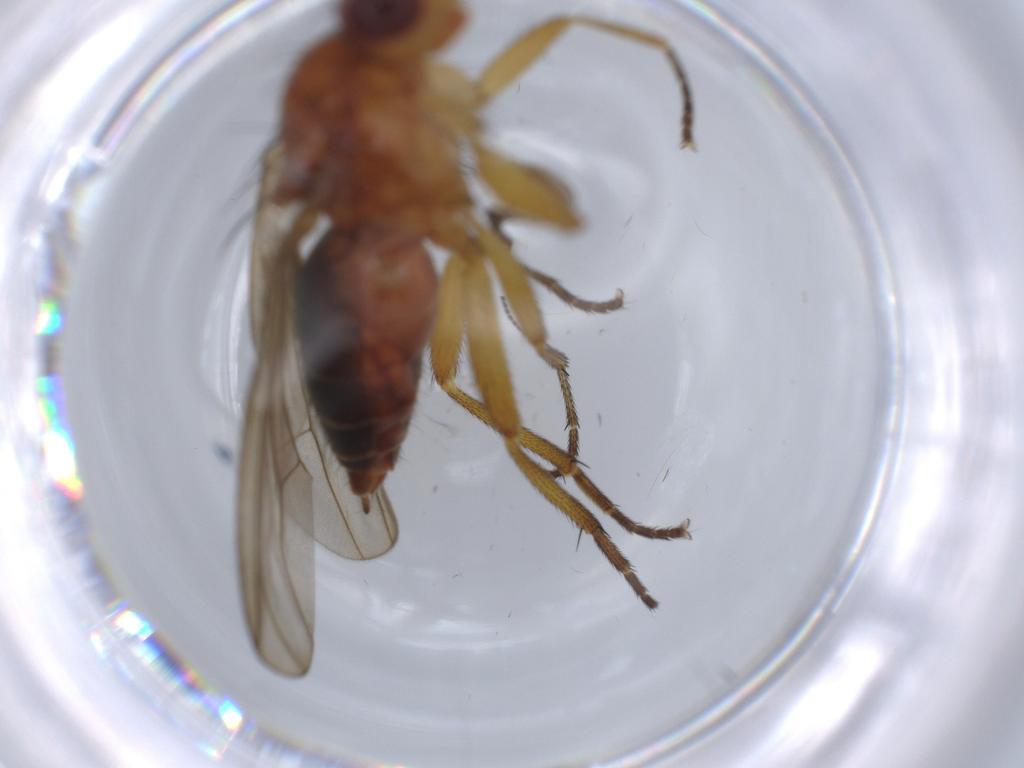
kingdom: Animalia
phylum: Arthropoda
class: Insecta
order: Diptera
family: Heleomyzidae
